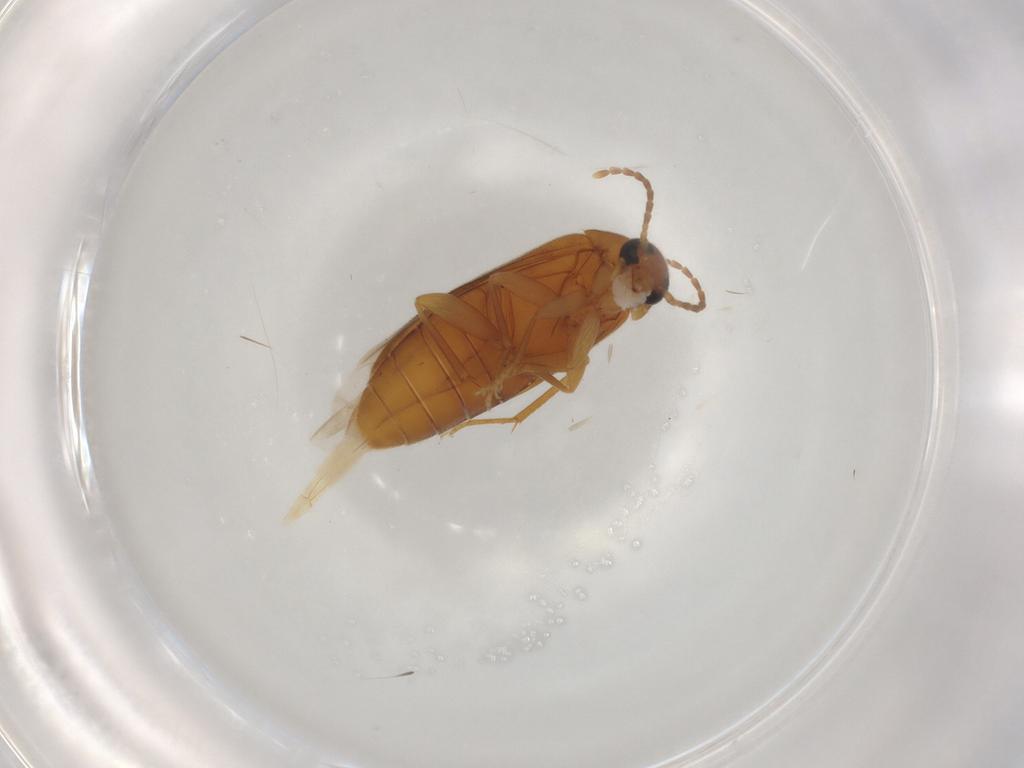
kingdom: Animalia
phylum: Arthropoda
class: Insecta
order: Coleoptera
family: Scraptiidae
